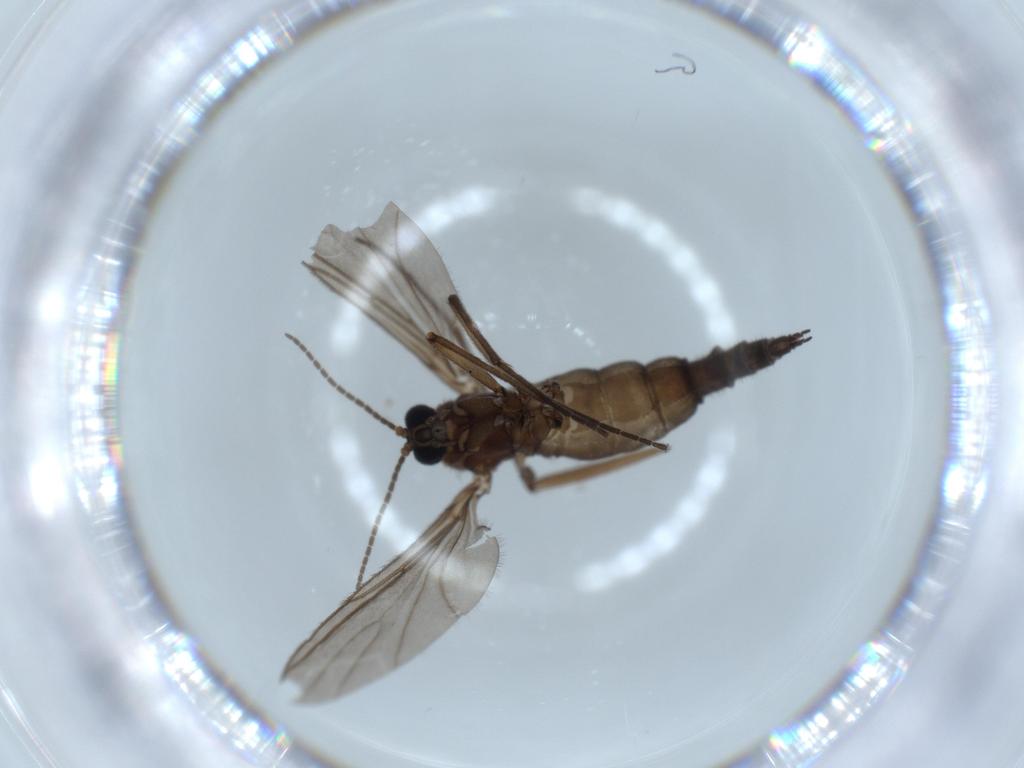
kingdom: Animalia
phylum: Arthropoda
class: Insecta
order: Diptera
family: Sciaridae
